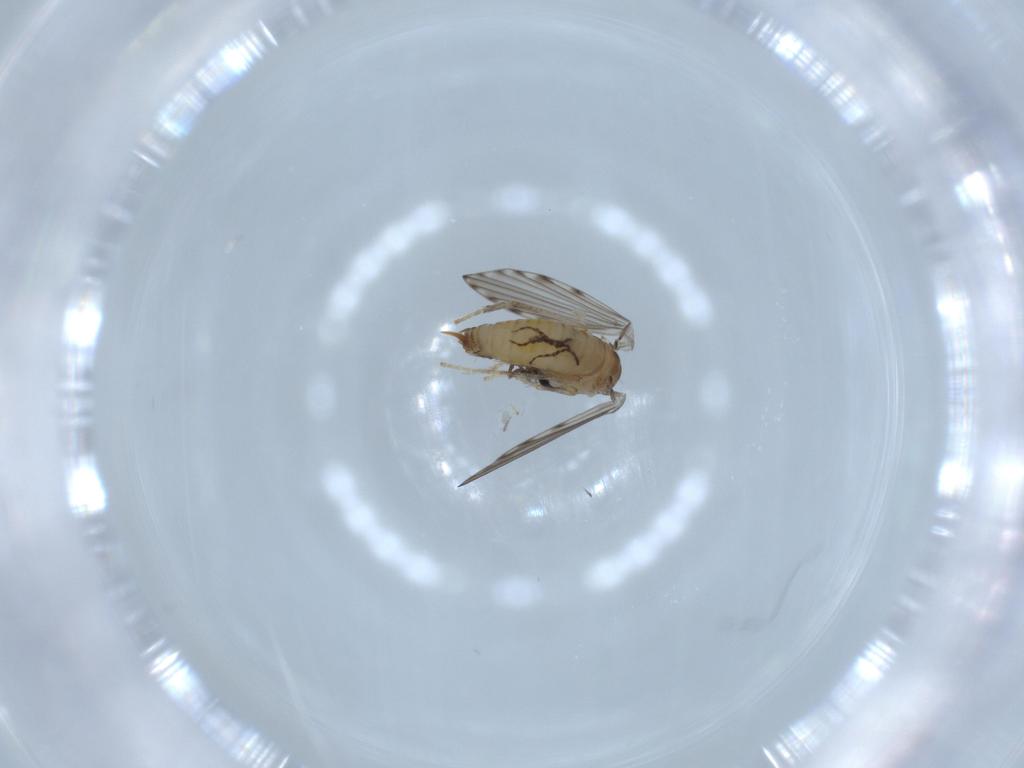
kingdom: Animalia
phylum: Arthropoda
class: Insecta
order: Diptera
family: Psychodidae
